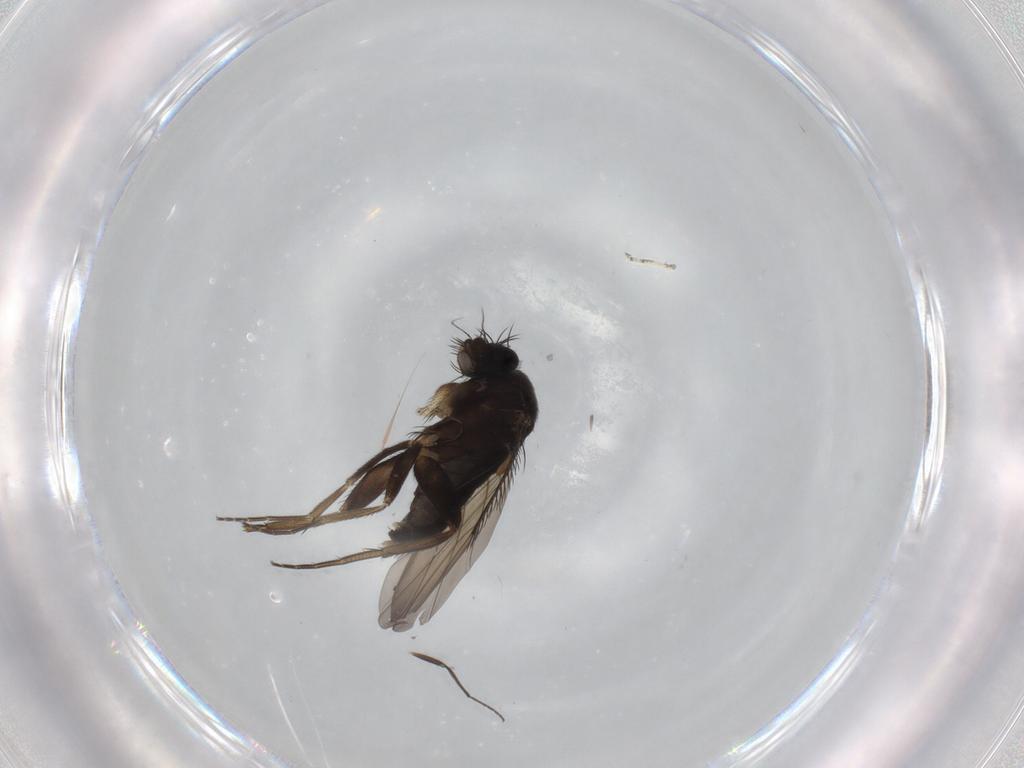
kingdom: Animalia
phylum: Arthropoda
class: Insecta
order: Diptera
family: Phoridae
